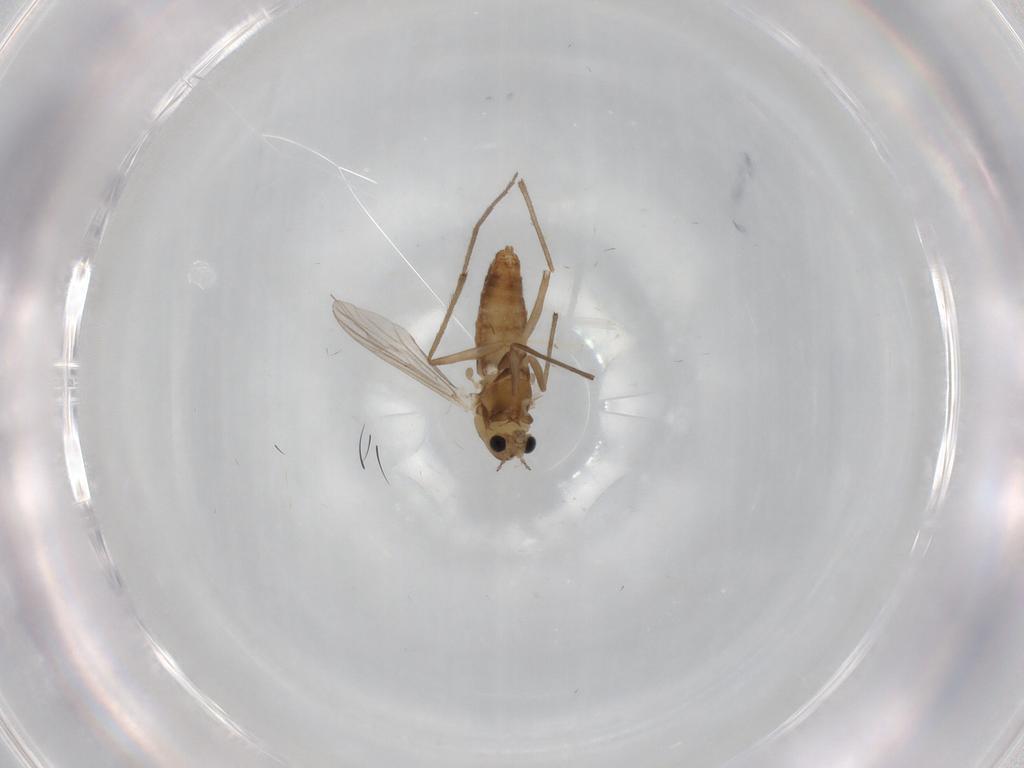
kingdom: Animalia
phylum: Arthropoda
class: Insecta
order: Diptera
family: Chironomidae
